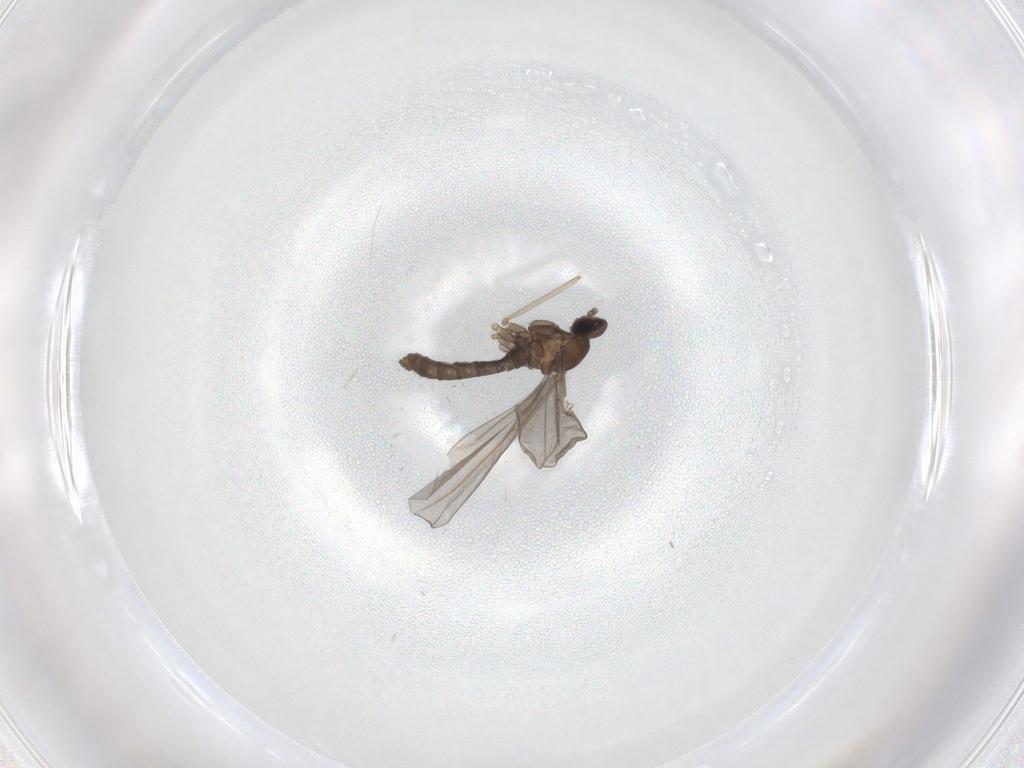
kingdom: Animalia
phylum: Arthropoda
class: Insecta
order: Diptera
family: Cecidomyiidae
